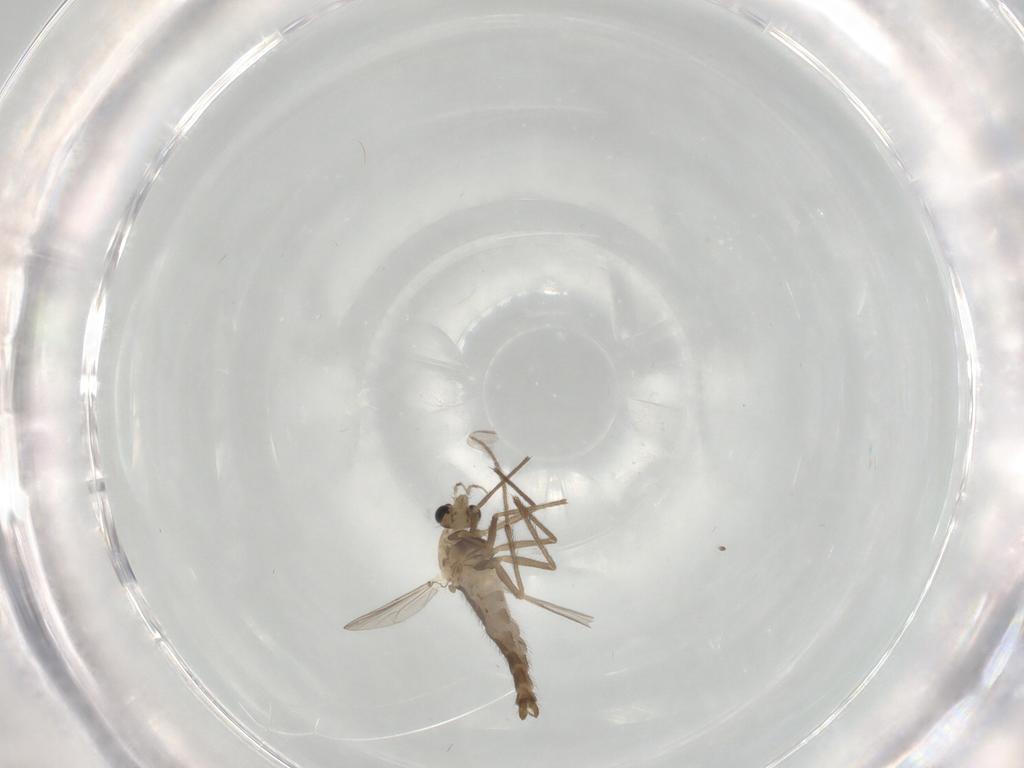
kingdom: Animalia
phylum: Arthropoda
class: Insecta
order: Diptera
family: Chironomidae
